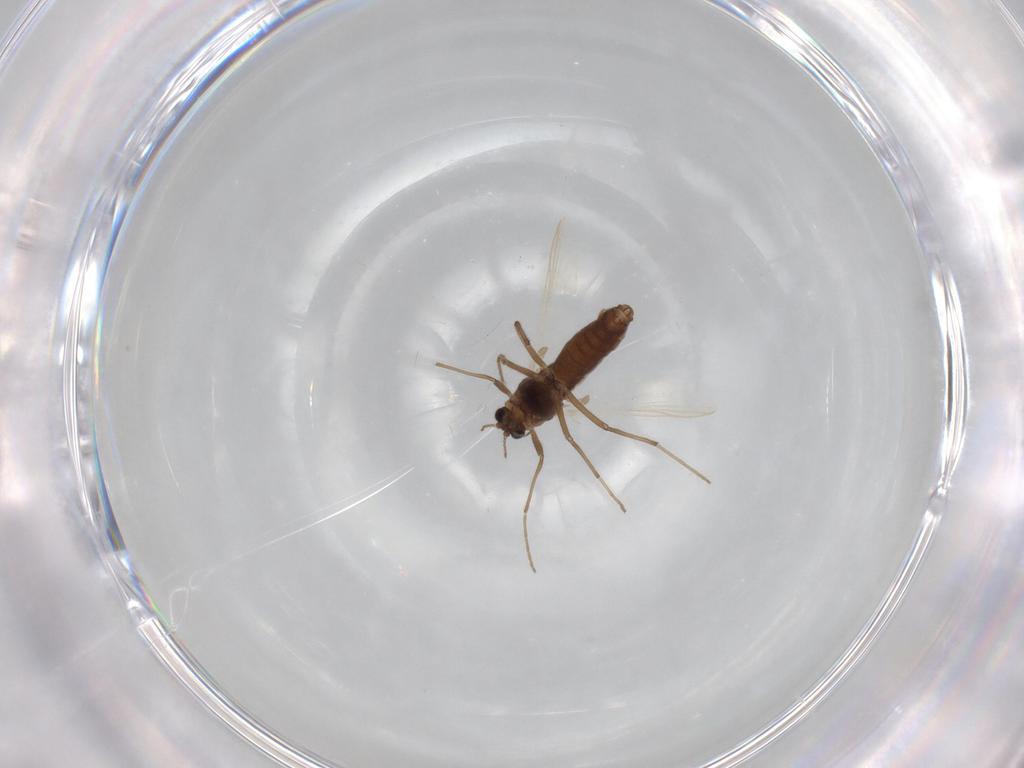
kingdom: Animalia
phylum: Arthropoda
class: Insecta
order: Diptera
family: Chironomidae
